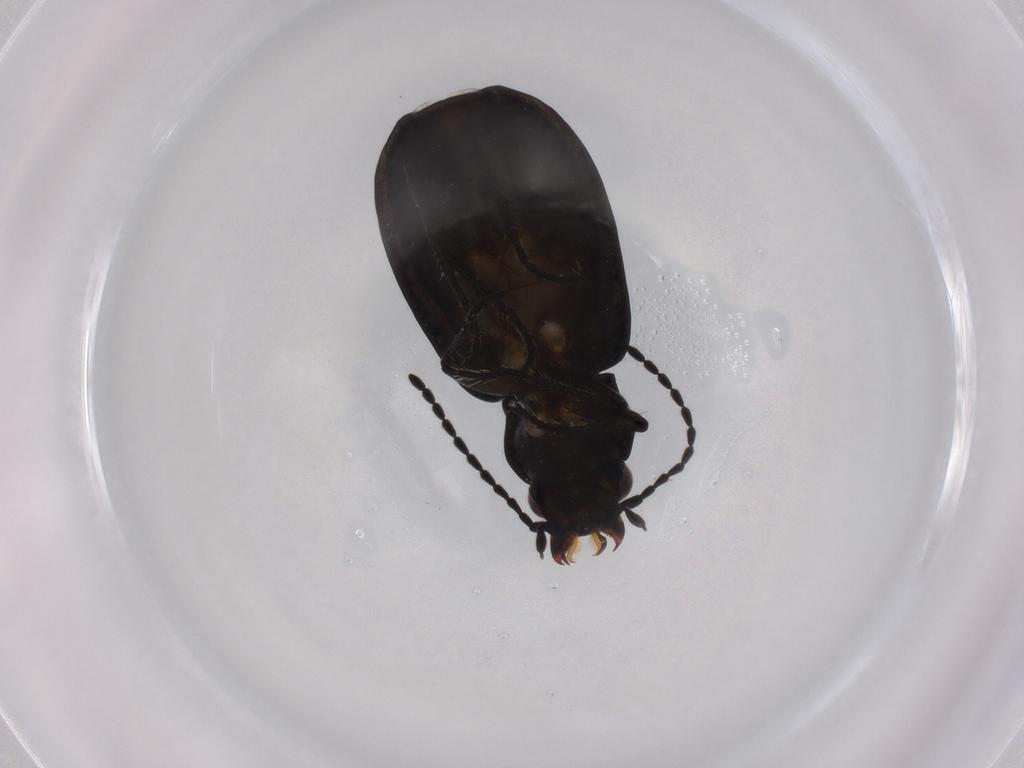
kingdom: Animalia
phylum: Arthropoda
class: Insecta
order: Coleoptera
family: Carabidae
